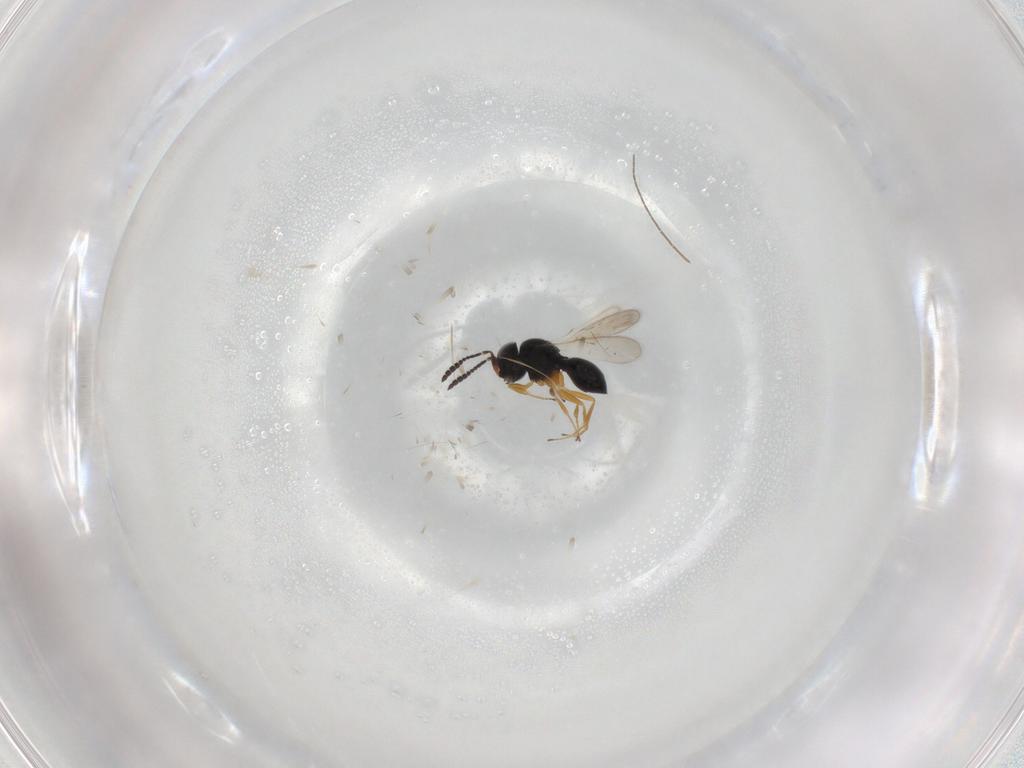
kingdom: Animalia
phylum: Arthropoda
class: Insecta
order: Hymenoptera
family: Scelionidae
